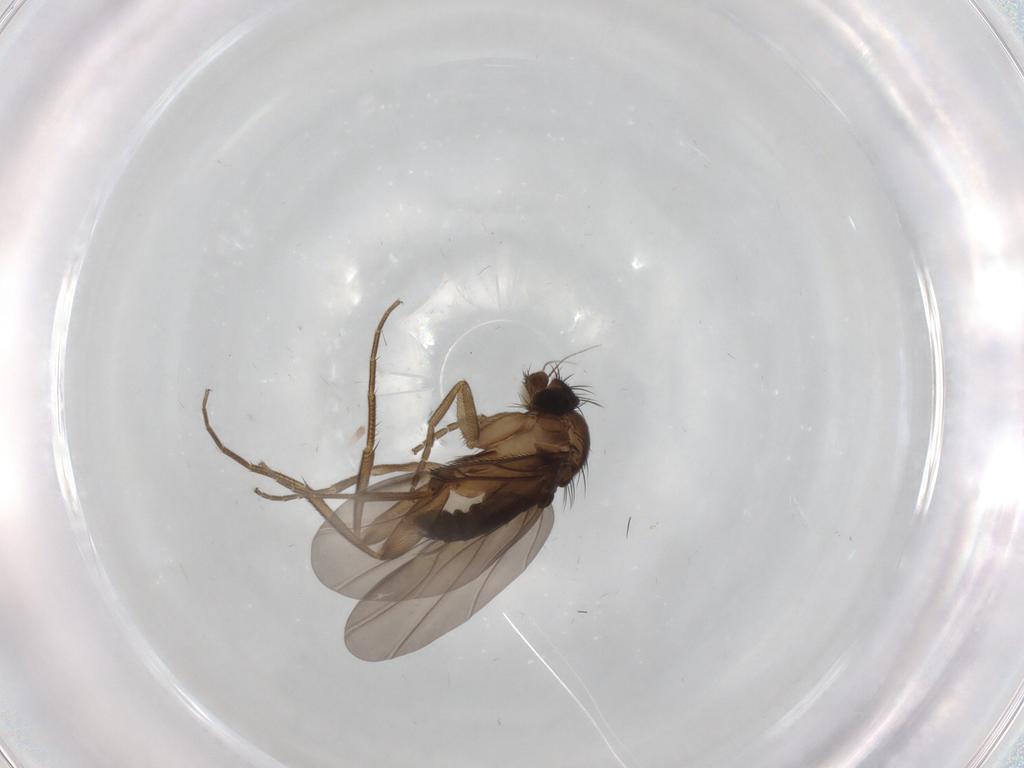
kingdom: Animalia
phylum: Arthropoda
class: Insecta
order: Diptera
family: Phoridae
